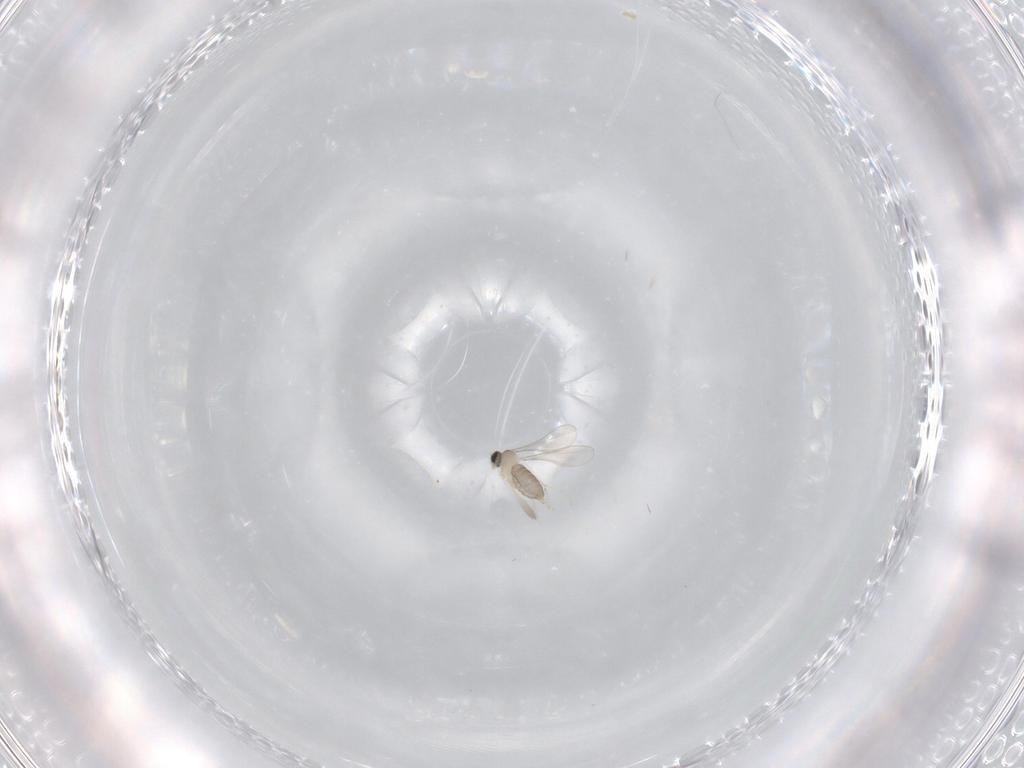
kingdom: Animalia
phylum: Arthropoda
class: Insecta
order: Diptera
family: Cecidomyiidae
